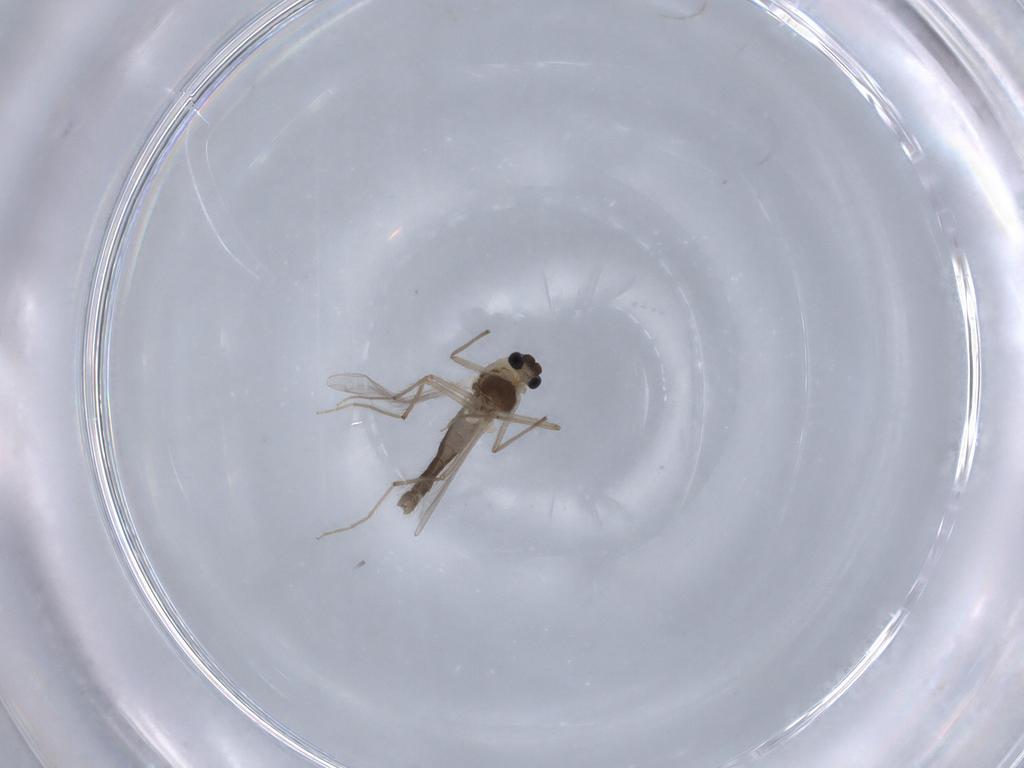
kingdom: Animalia
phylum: Arthropoda
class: Insecta
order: Diptera
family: Chironomidae
